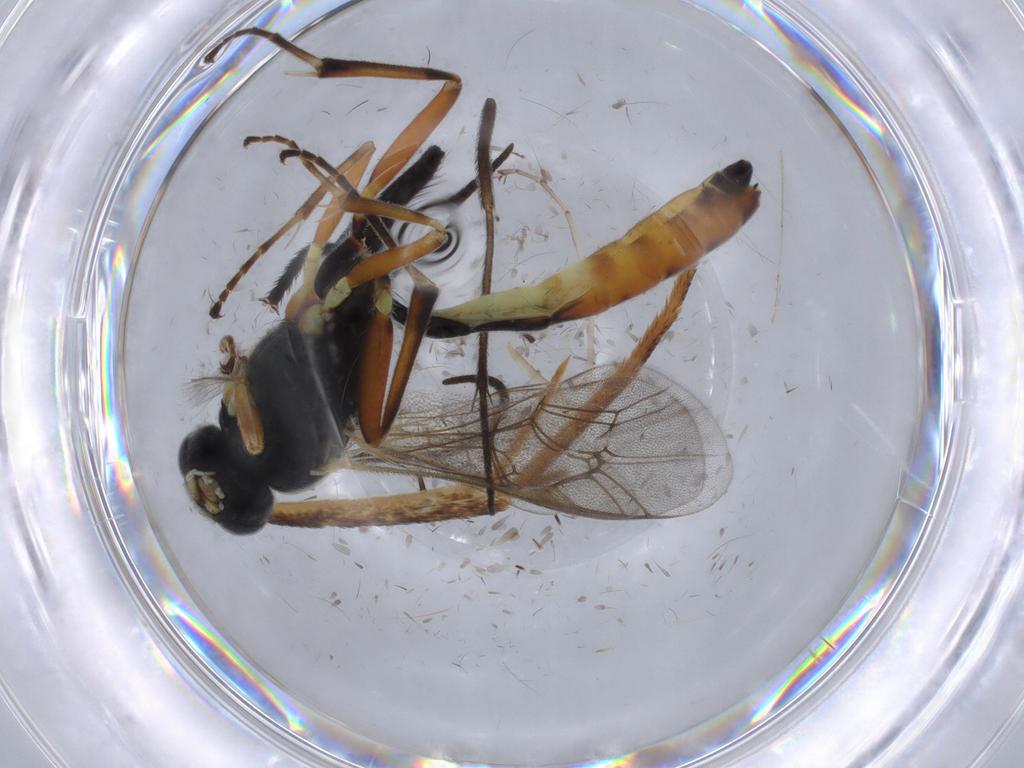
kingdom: Animalia
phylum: Arthropoda
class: Insecta
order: Hymenoptera
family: Ichneumonidae
